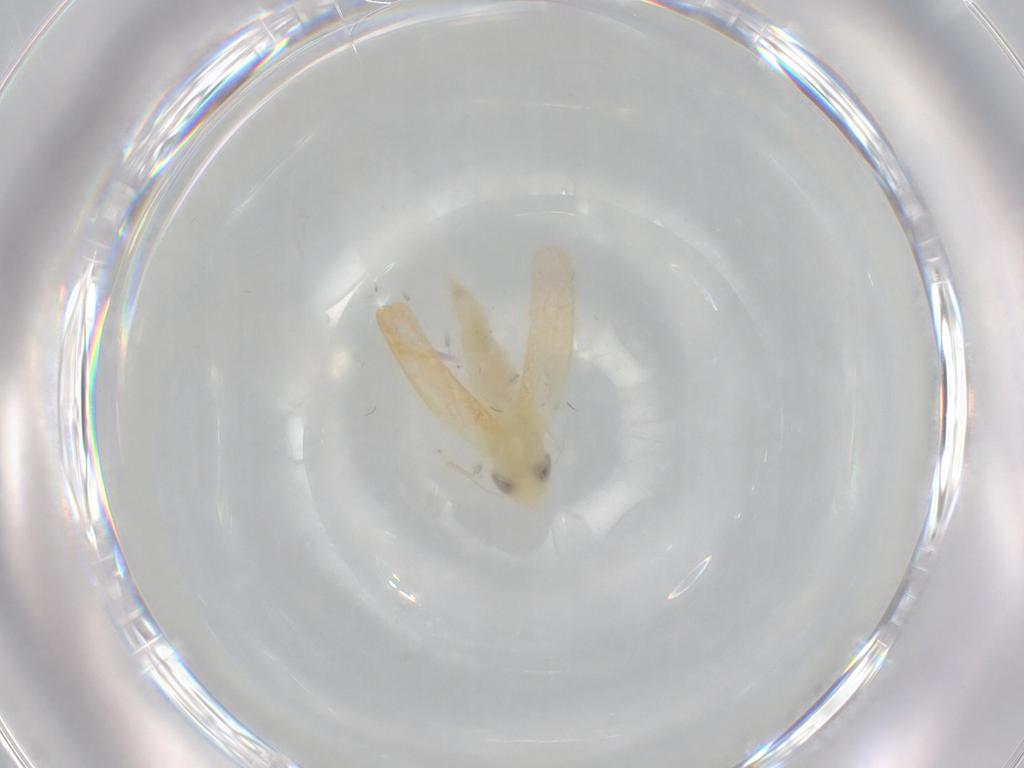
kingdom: Animalia
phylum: Arthropoda
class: Insecta
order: Hemiptera
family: Cicadellidae
